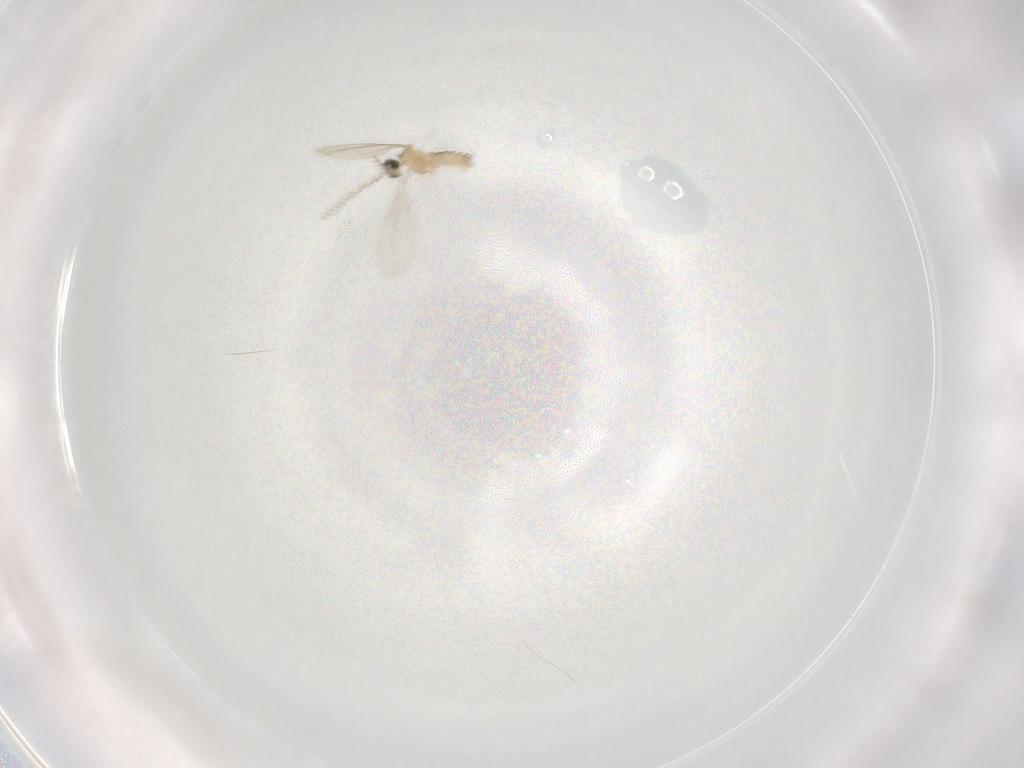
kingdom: Animalia
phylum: Arthropoda
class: Insecta
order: Diptera
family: Cecidomyiidae
